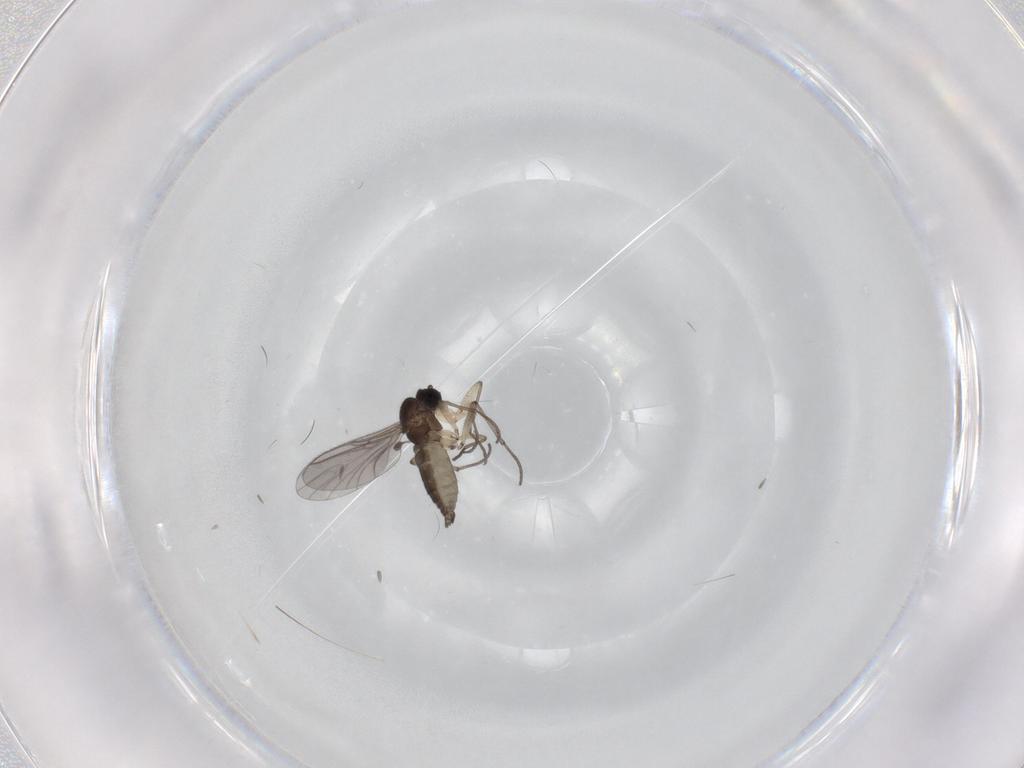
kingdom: Animalia
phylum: Arthropoda
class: Insecta
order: Diptera
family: Sciaridae
